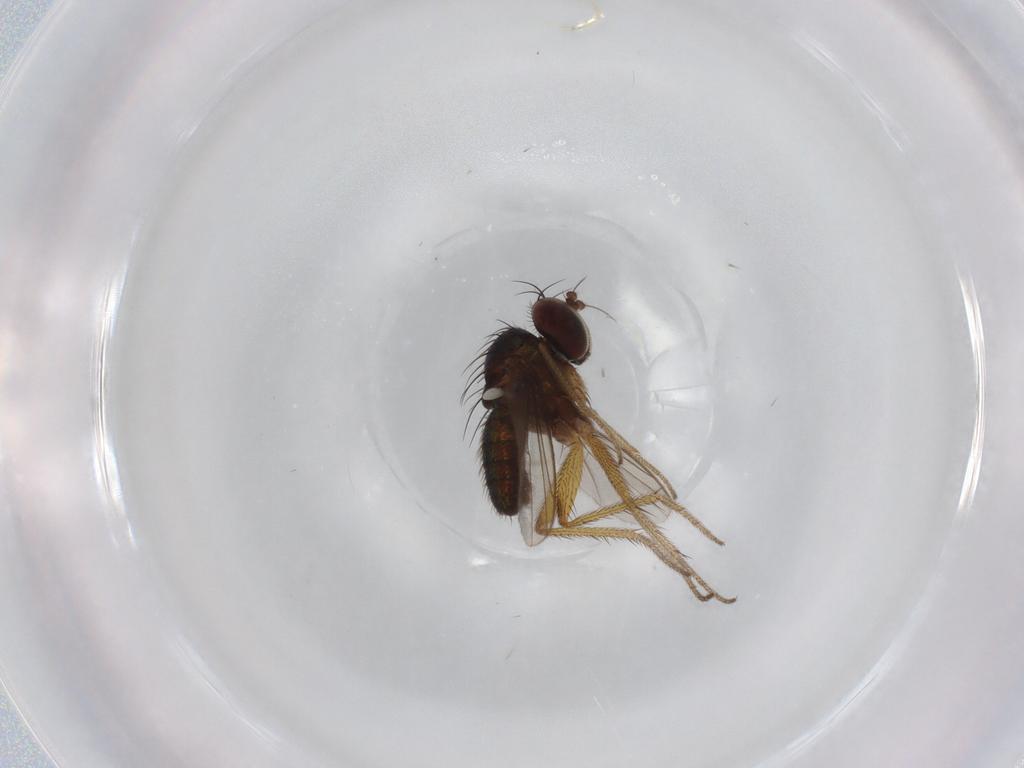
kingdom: Animalia
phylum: Arthropoda
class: Insecta
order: Diptera
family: Dolichopodidae
